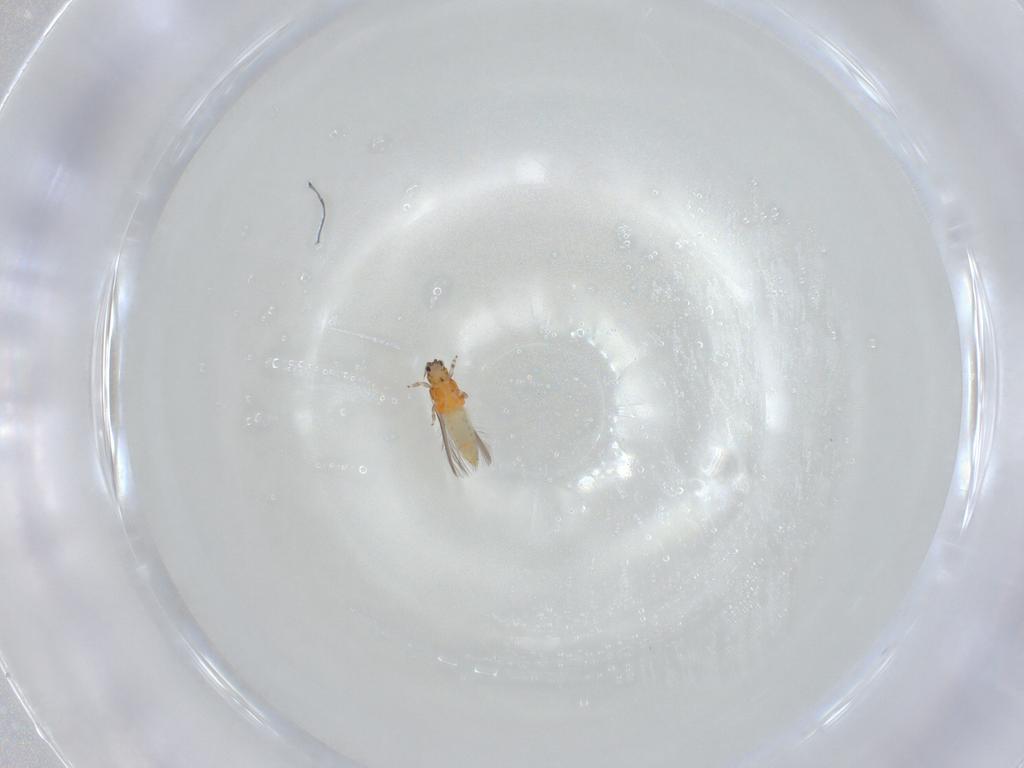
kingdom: Animalia
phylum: Arthropoda
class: Insecta
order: Thysanoptera
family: Thripidae
